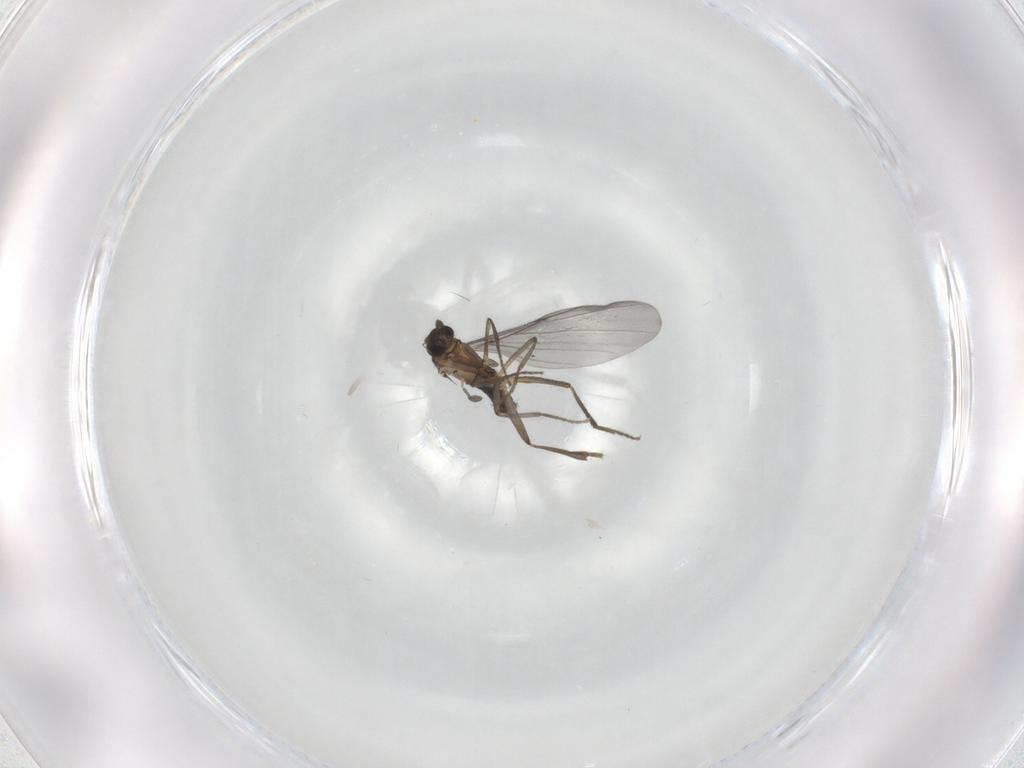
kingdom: Animalia
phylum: Arthropoda
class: Insecta
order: Diptera
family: Phoridae
